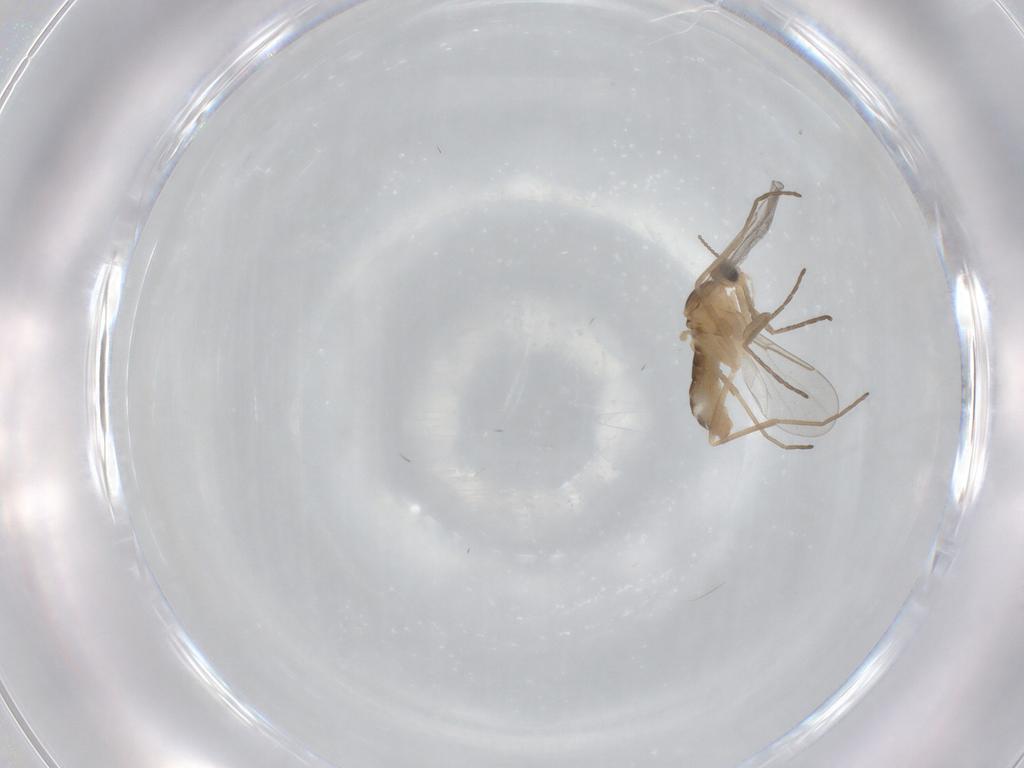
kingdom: Animalia
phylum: Arthropoda
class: Insecta
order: Diptera
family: Cecidomyiidae
